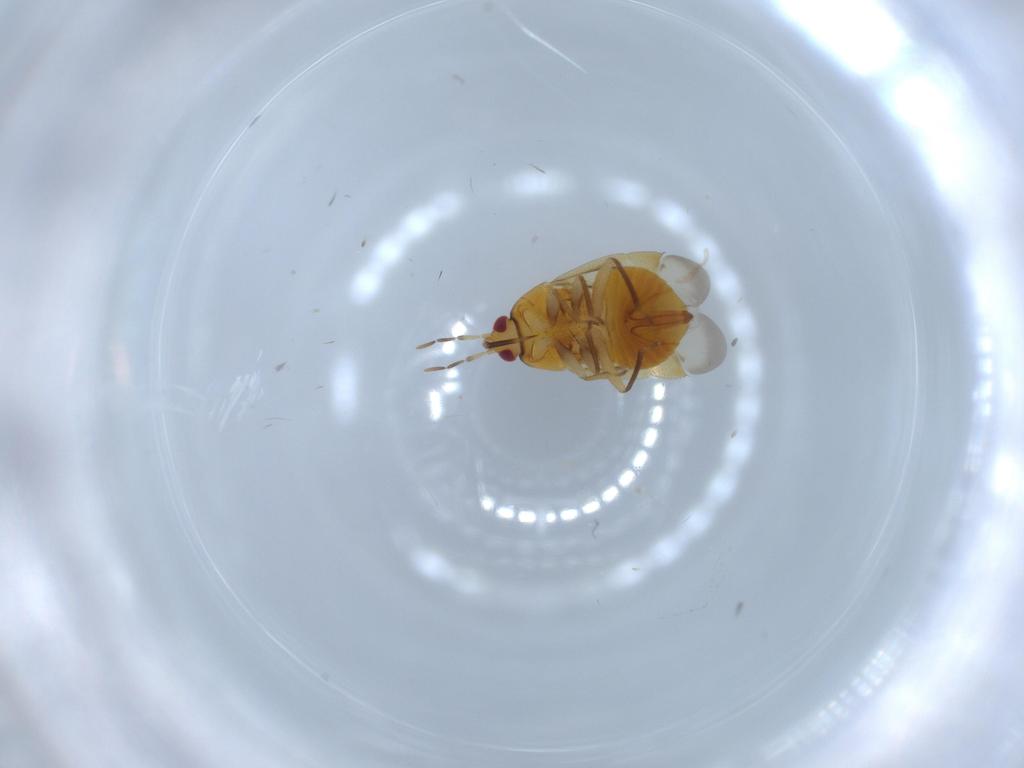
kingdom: Animalia
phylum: Arthropoda
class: Insecta
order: Hemiptera
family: Anthocoridae
